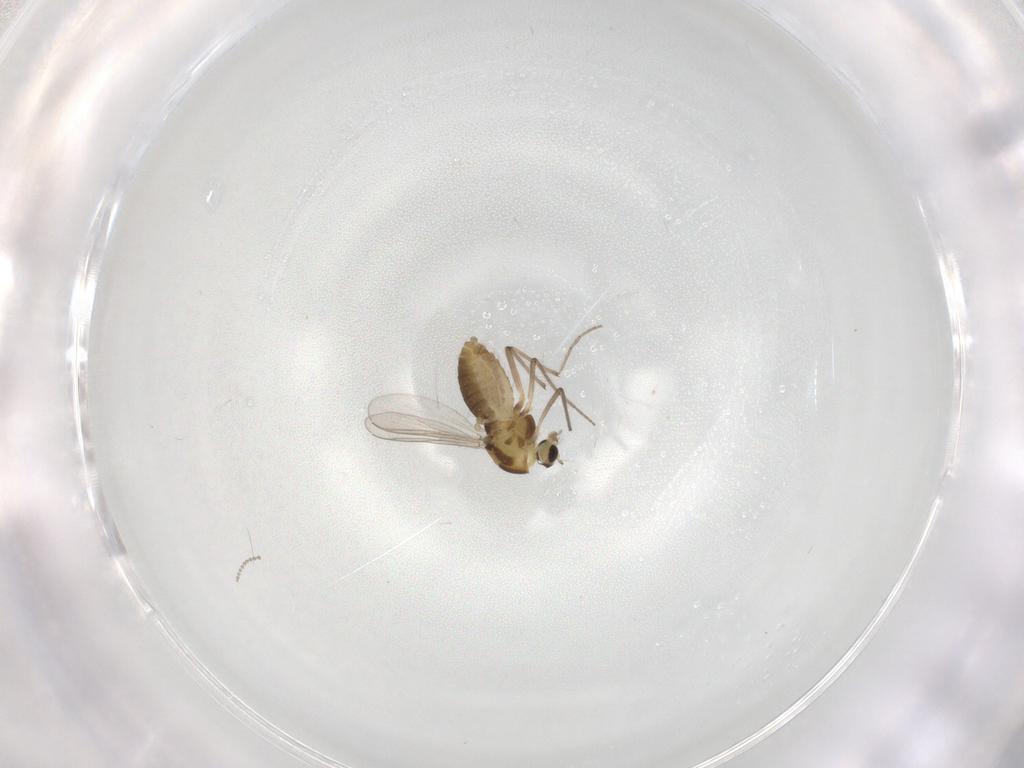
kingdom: Animalia
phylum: Arthropoda
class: Insecta
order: Diptera
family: Chironomidae
